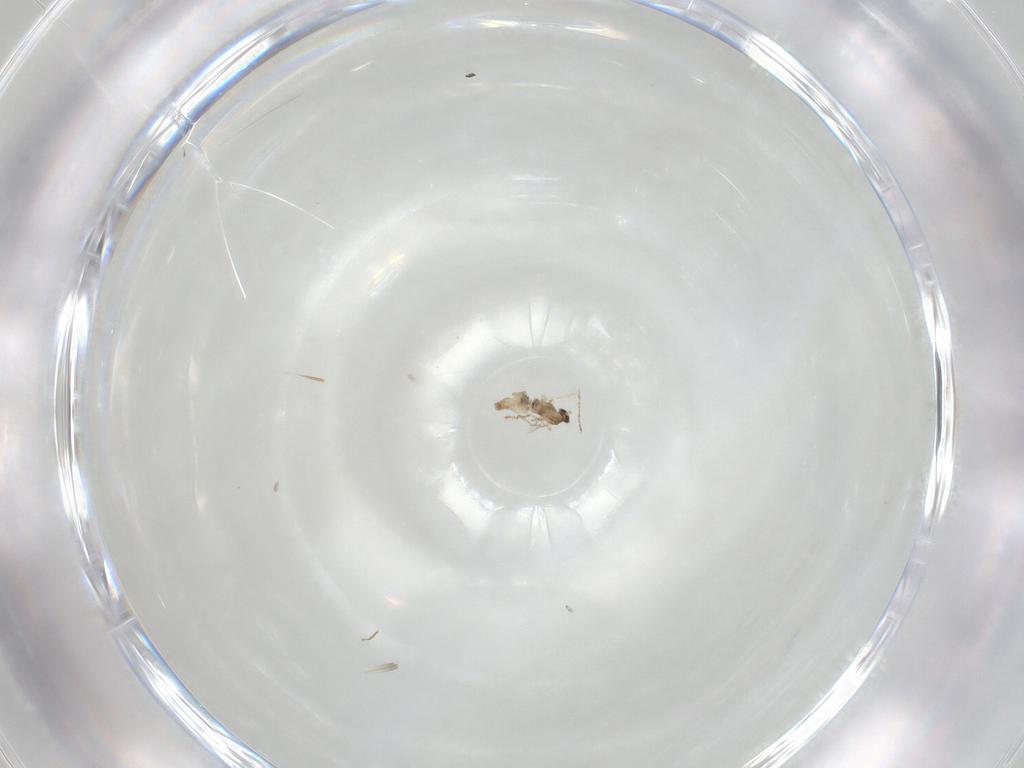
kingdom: Animalia
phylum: Arthropoda
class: Insecta
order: Diptera
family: Cecidomyiidae
